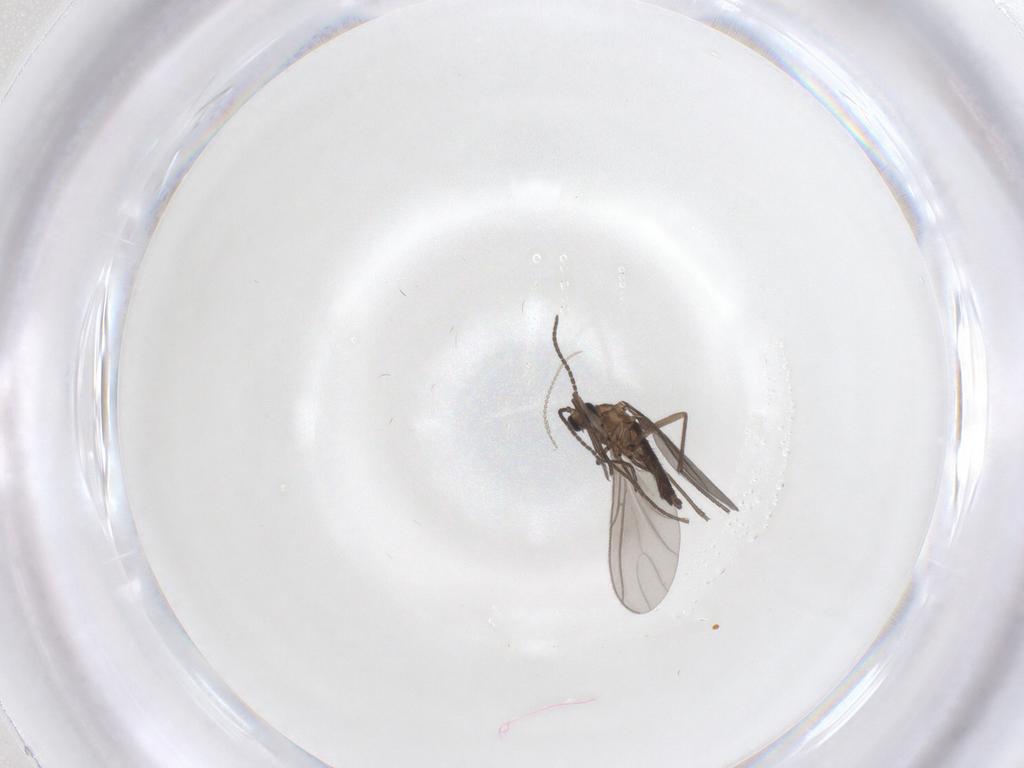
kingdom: Animalia
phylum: Arthropoda
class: Insecta
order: Diptera
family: Sciaridae
